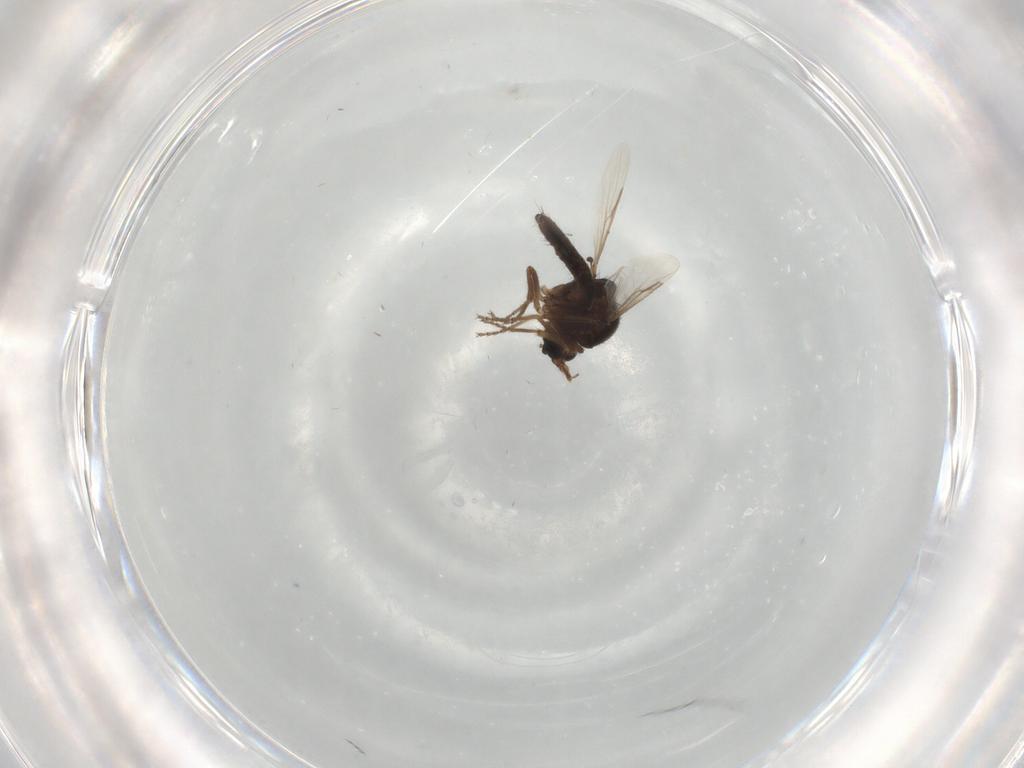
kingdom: Animalia
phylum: Arthropoda
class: Insecta
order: Diptera
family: Ceratopogonidae
